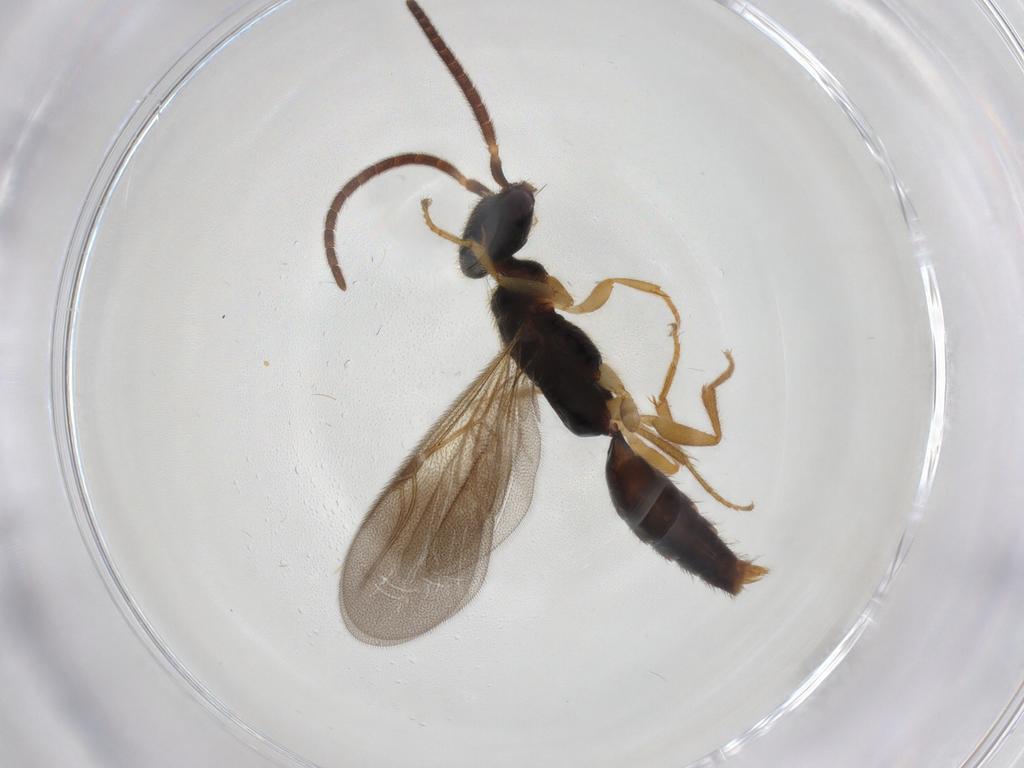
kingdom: Animalia
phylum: Arthropoda
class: Insecta
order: Hymenoptera
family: Bethylidae
